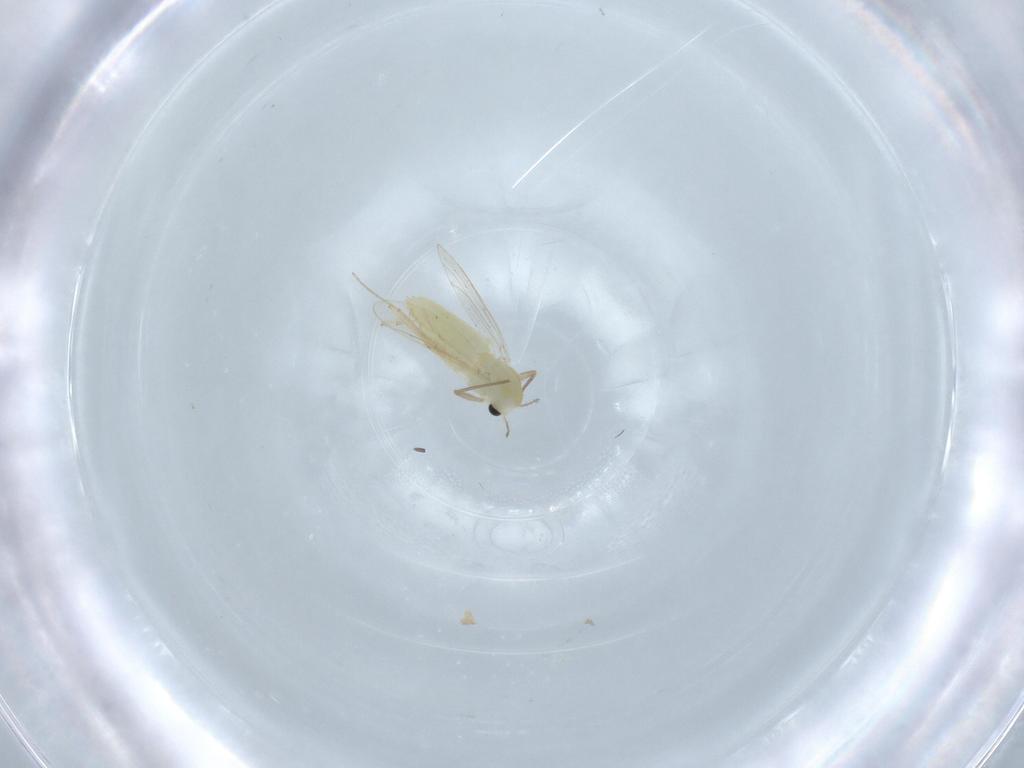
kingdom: Animalia
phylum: Arthropoda
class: Insecta
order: Diptera
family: Chironomidae
